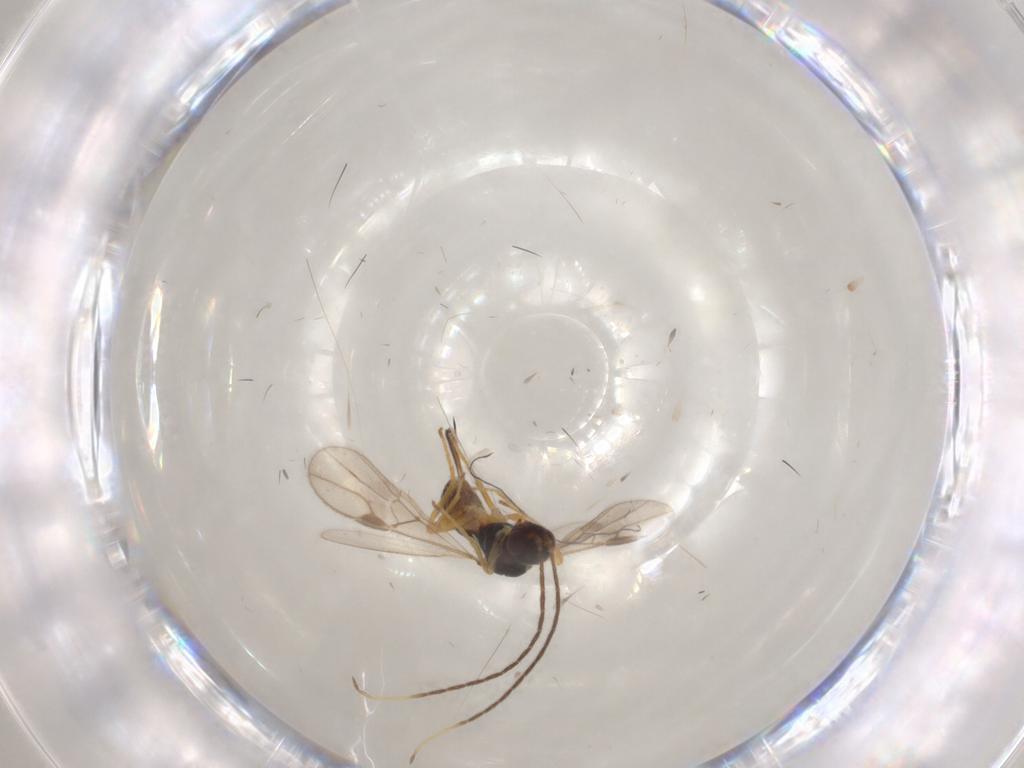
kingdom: Animalia
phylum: Arthropoda
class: Insecta
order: Hymenoptera
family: Braconidae
